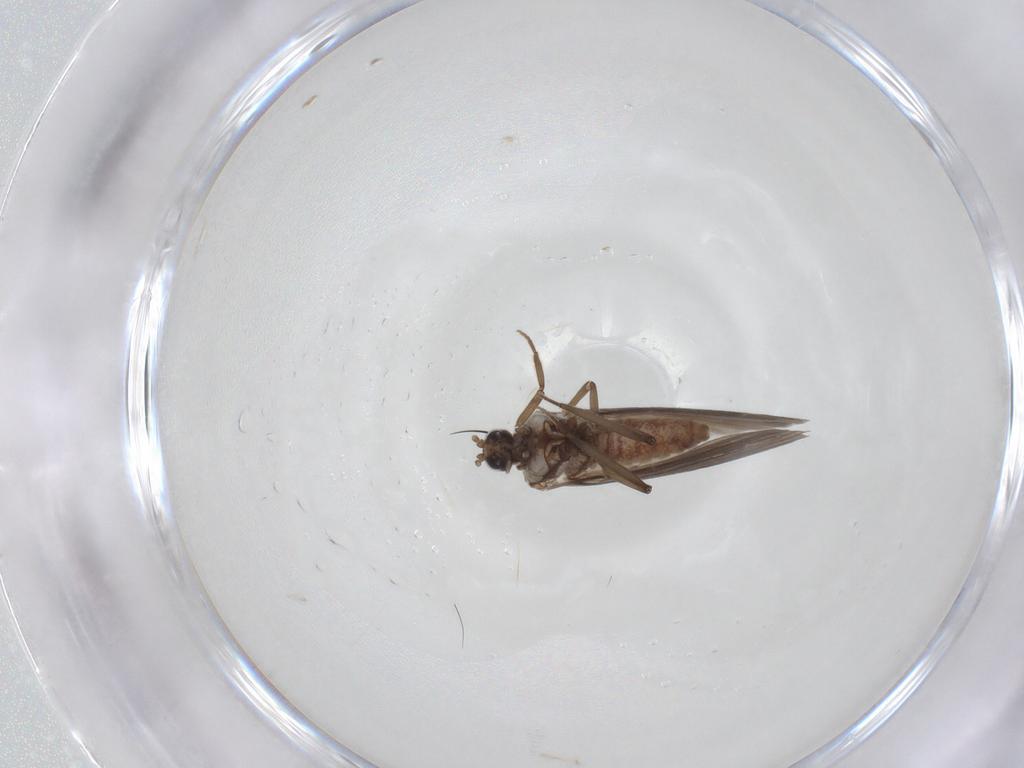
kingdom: Animalia
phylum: Arthropoda
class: Insecta
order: Neuroptera
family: Coniopterygidae
